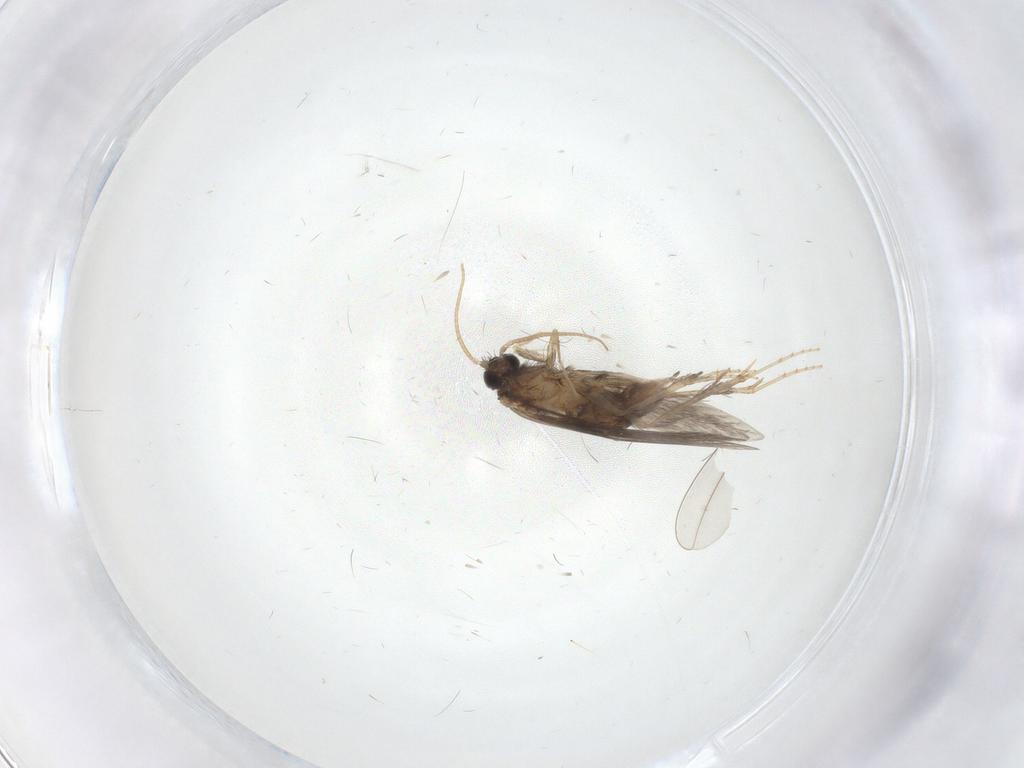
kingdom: Animalia
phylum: Arthropoda
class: Insecta
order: Trichoptera
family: Hydroptilidae
